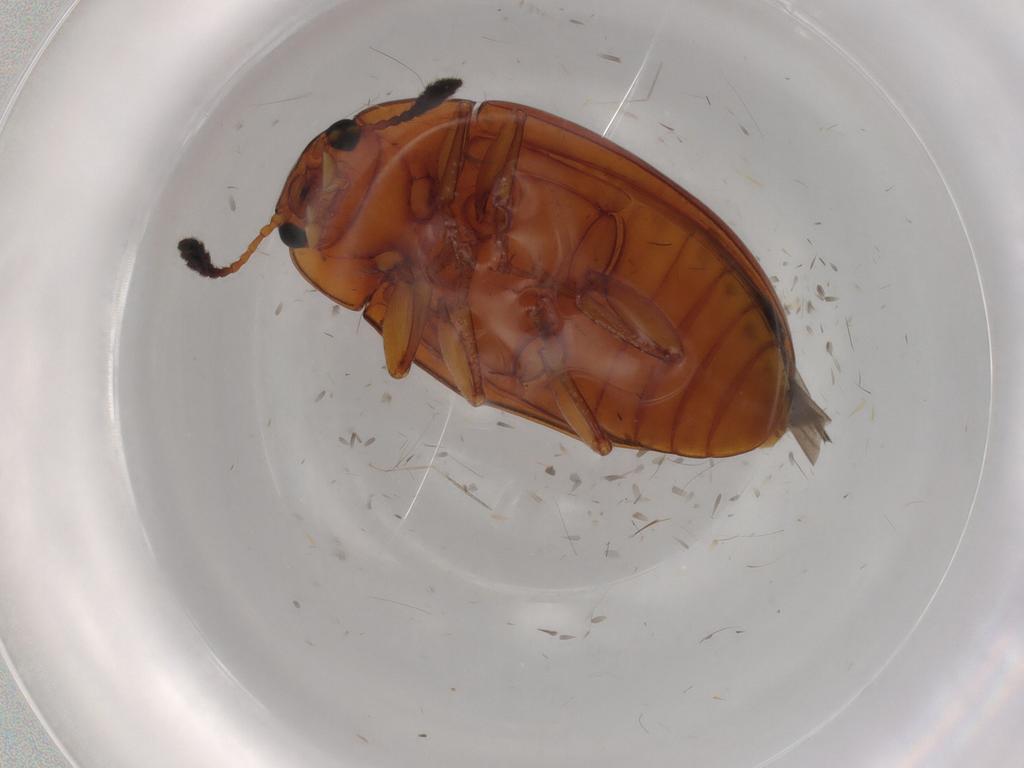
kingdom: Animalia
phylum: Arthropoda
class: Insecta
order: Coleoptera
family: Erotylidae
